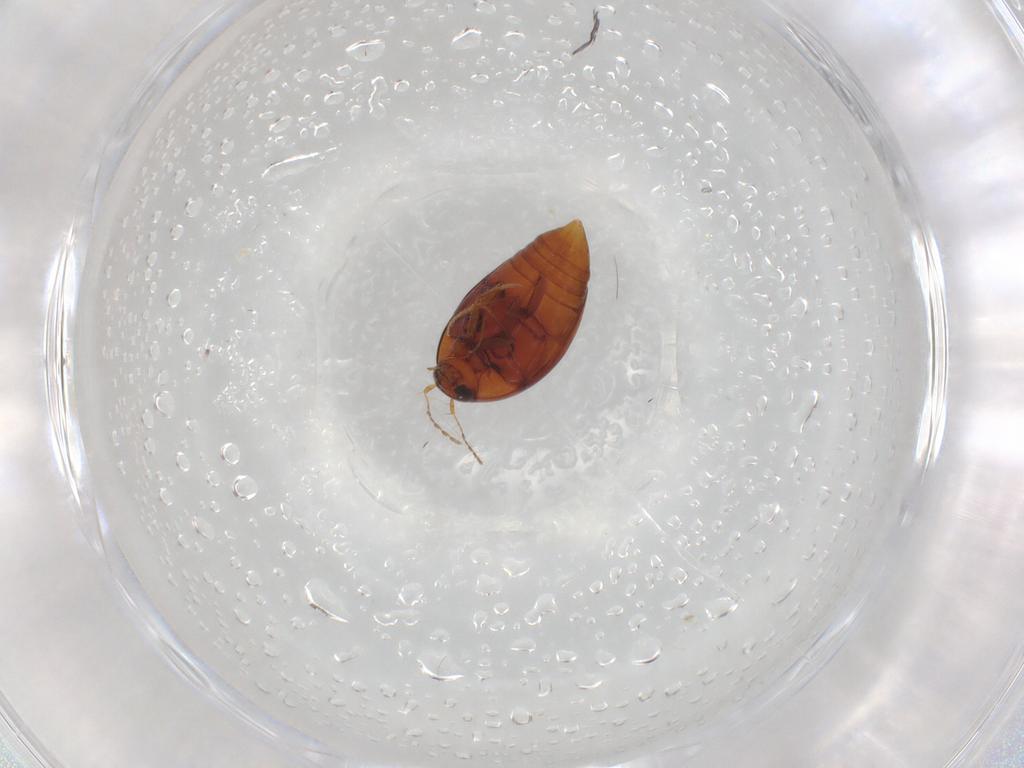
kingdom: Animalia
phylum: Arthropoda
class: Insecta
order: Coleoptera
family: Staphylinidae
